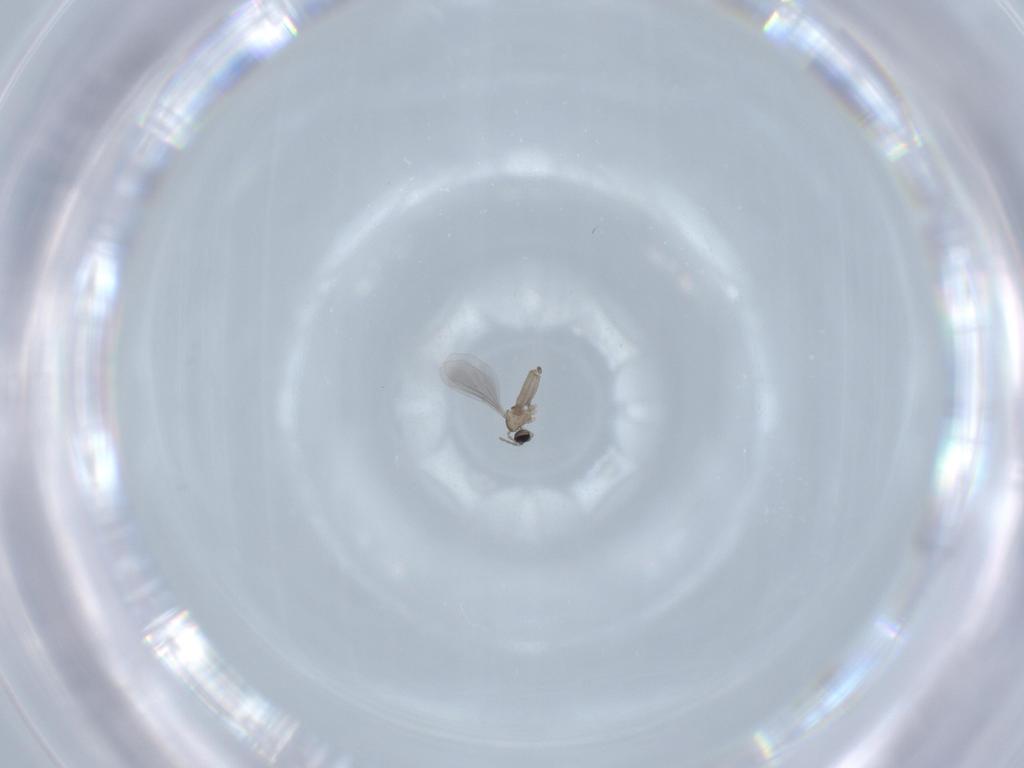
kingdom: Animalia
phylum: Arthropoda
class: Insecta
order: Diptera
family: Cecidomyiidae
